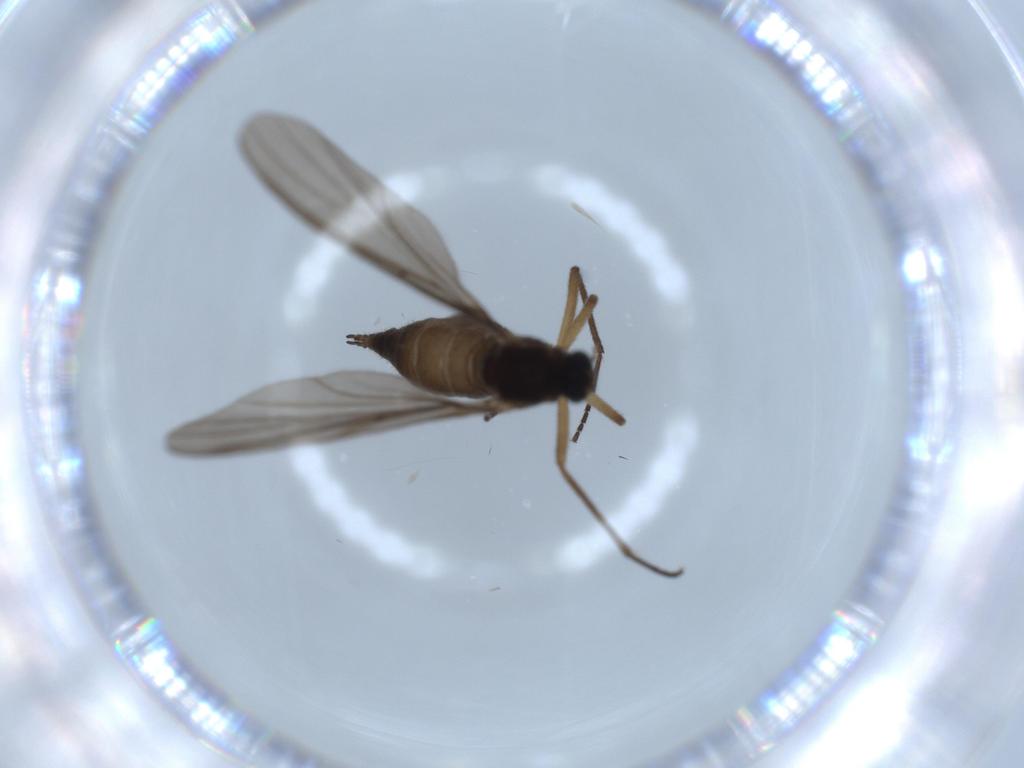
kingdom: Animalia
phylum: Arthropoda
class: Insecta
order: Diptera
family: Sciaridae
